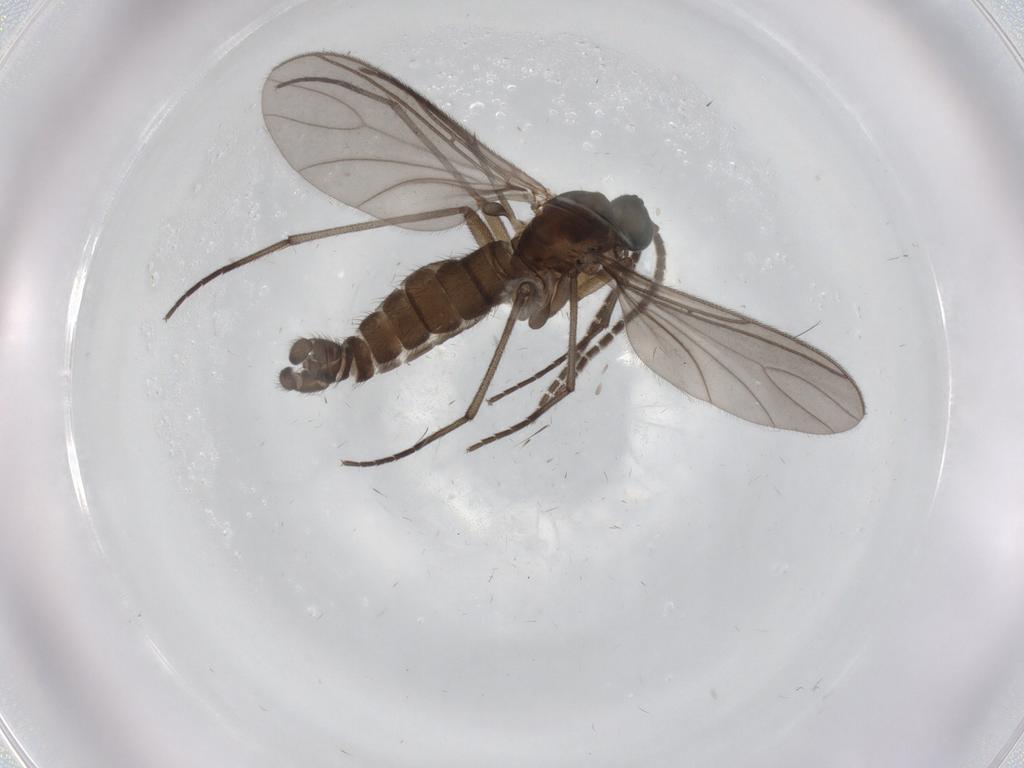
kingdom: Animalia
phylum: Arthropoda
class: Insecta
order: Diptera
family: Sciaridae
